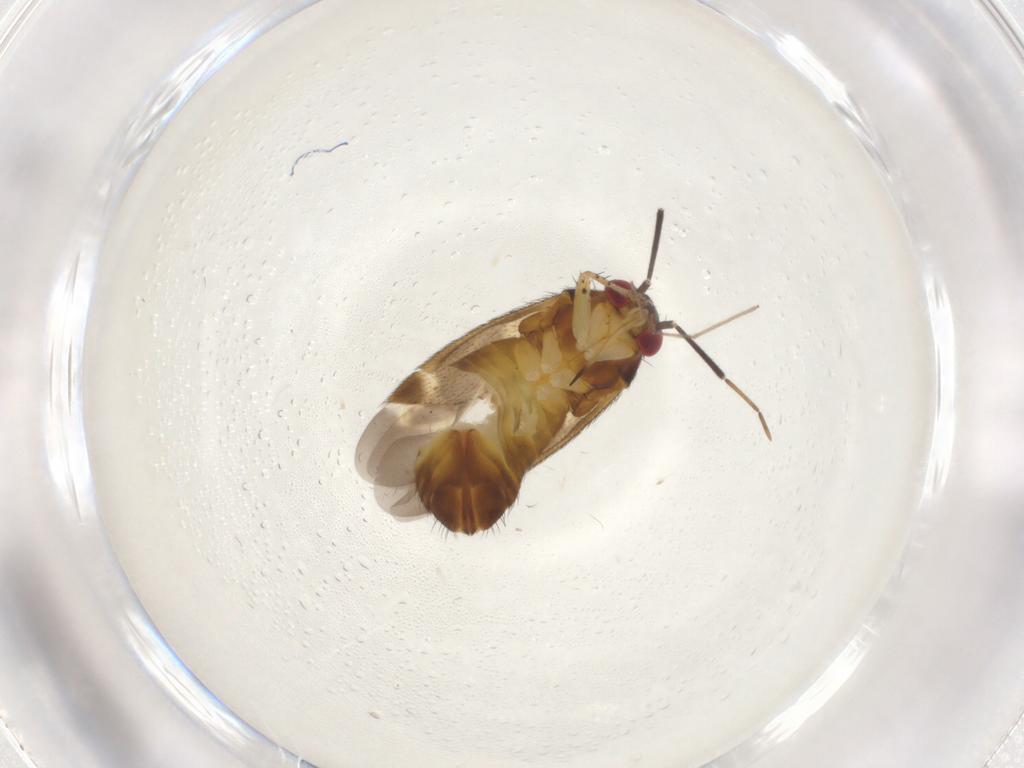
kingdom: Animalia
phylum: Arthropoda
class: Insecta
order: Hemiptera
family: Miridae
